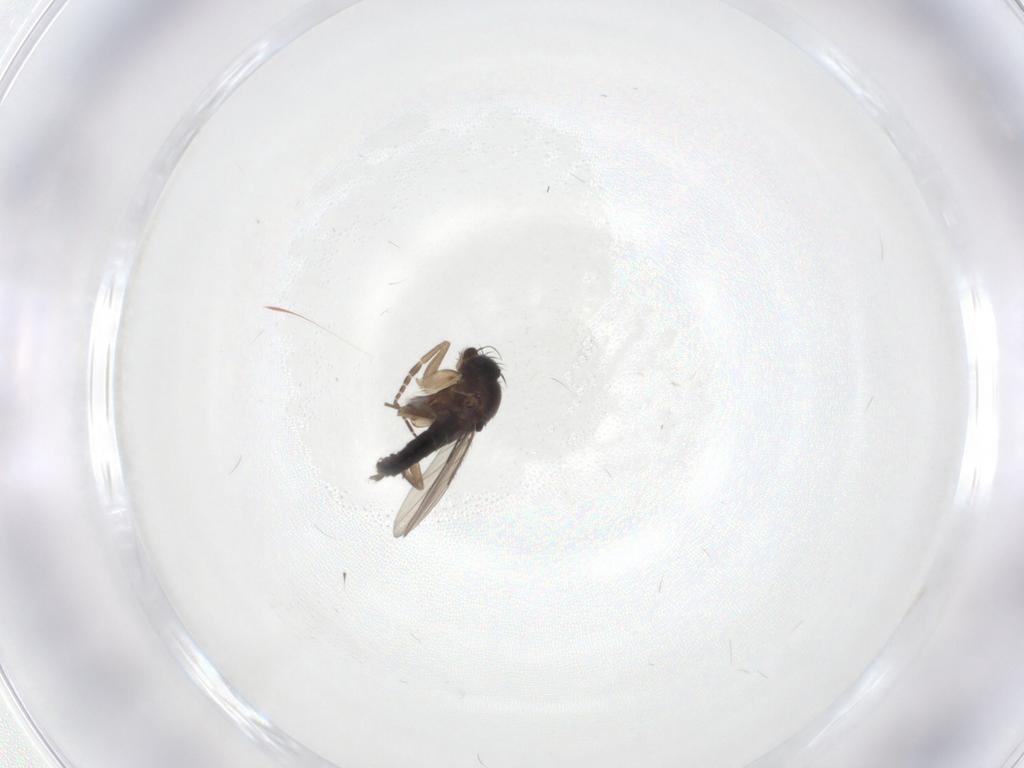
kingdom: Animalia
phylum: Arthropoda
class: Insecta
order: Diptera
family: Phoridae
